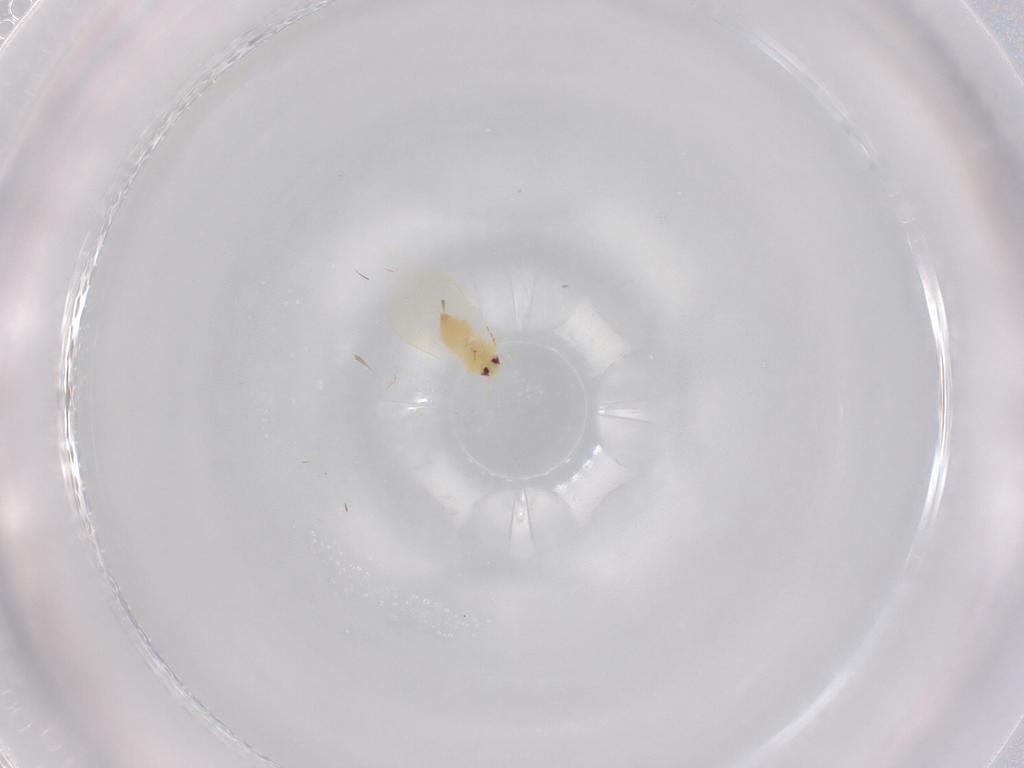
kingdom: Animalia
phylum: Arthropoda
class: Insecta
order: Hemiptera
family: Aleyrodidae
